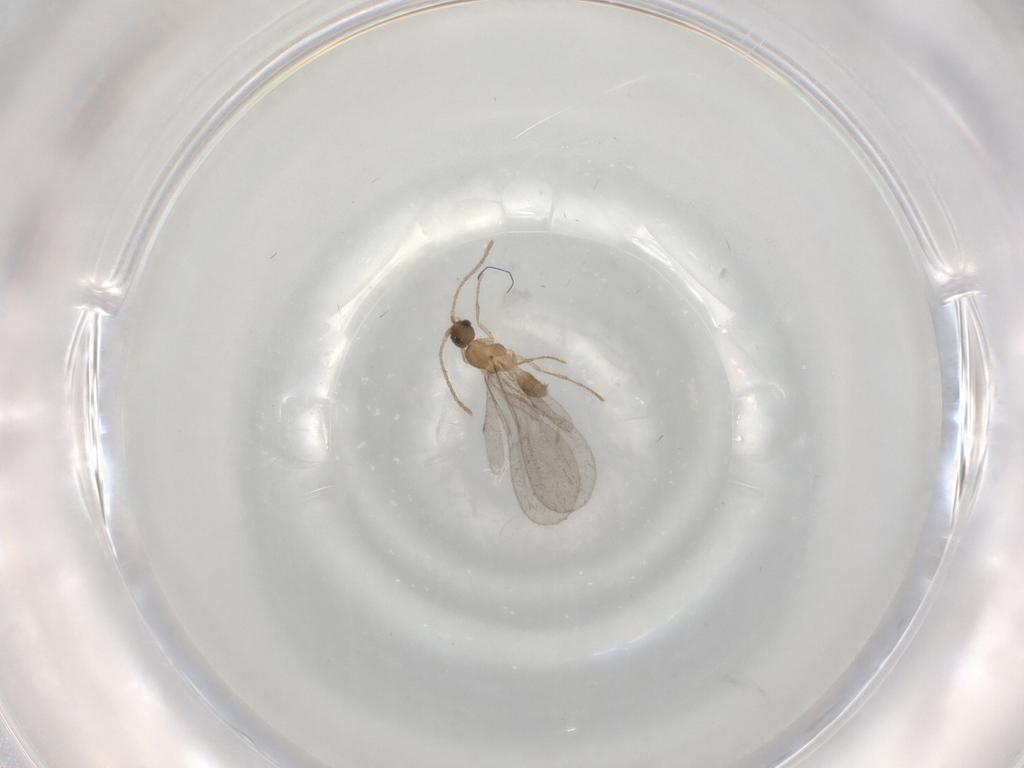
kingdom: Animalia
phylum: Arthropoda
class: Insecta
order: Hymenoptera
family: Formicidae
